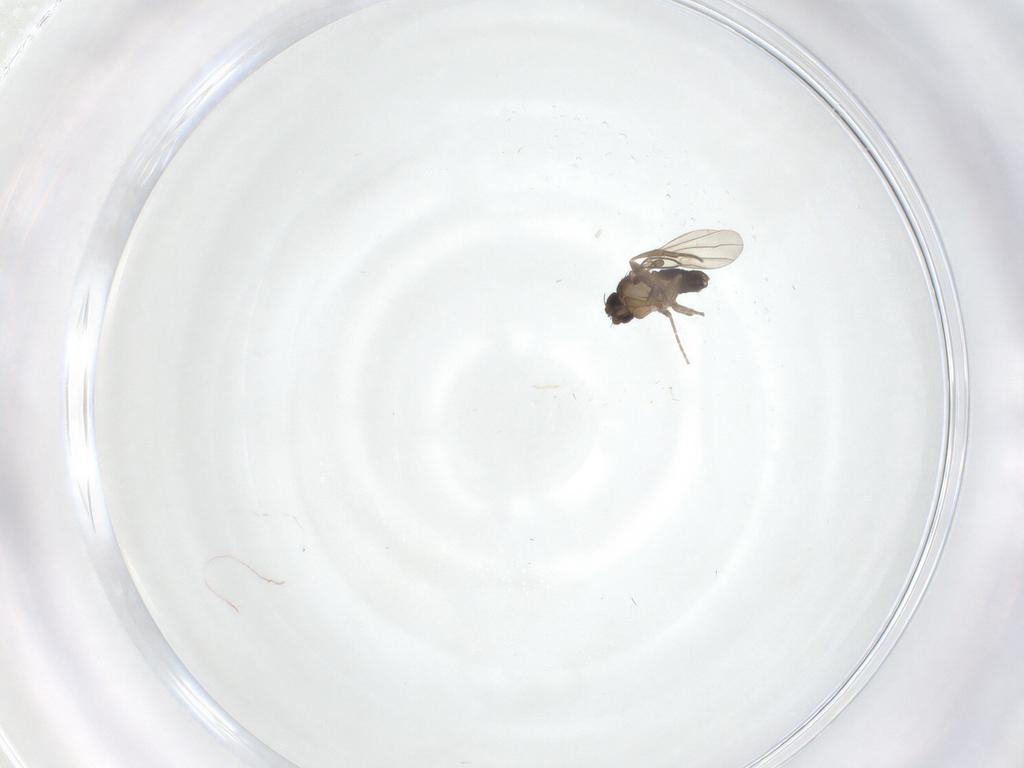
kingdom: Animalia
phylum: Arthropoda
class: Insecta
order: Diptera
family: Phoridae
